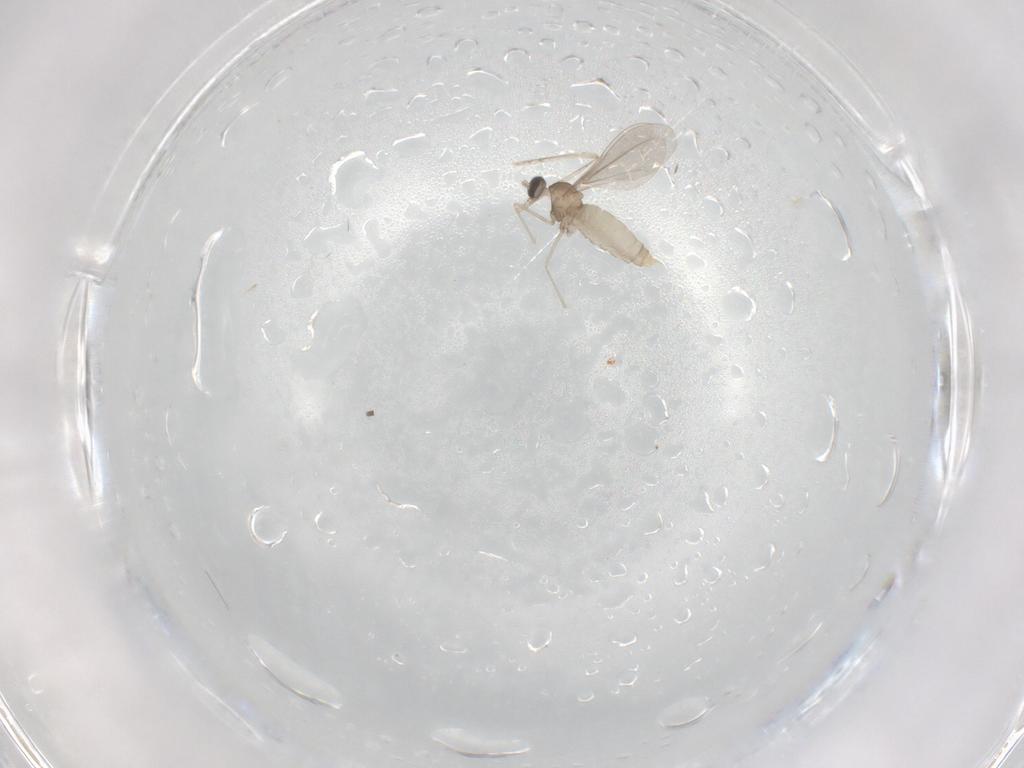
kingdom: Animalia
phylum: Arthropoda
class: Insecta
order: Diptera
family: Cecidomyiidae
